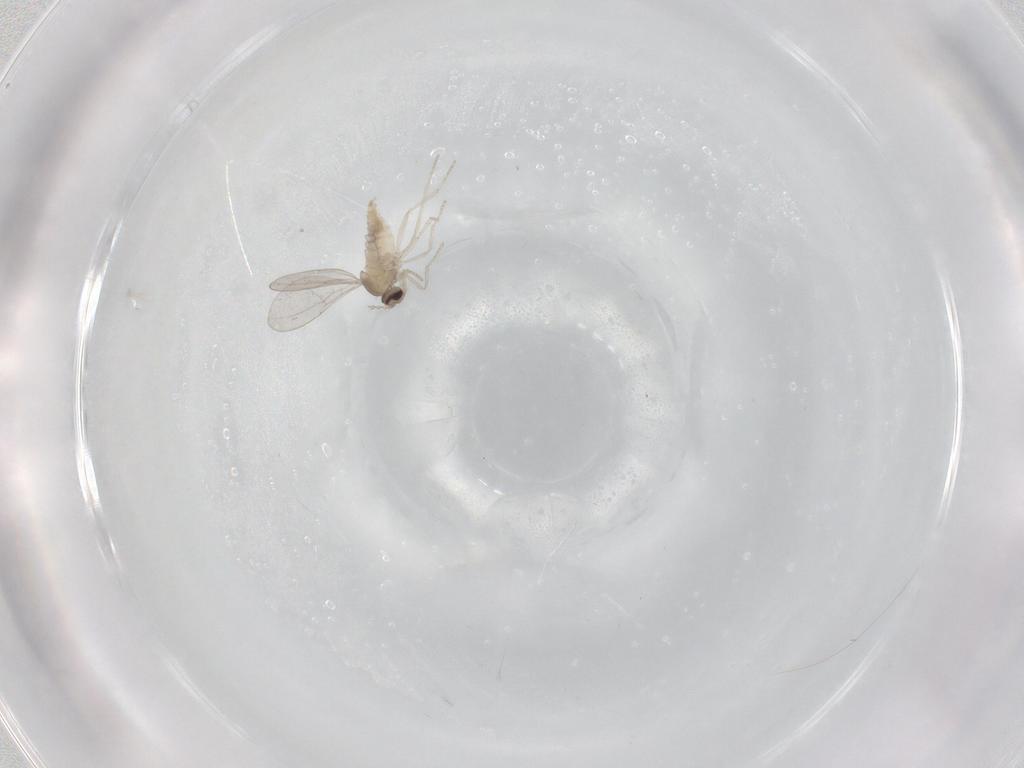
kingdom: Animalia
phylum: Arthropoda
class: Insecta
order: Diptera
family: Cecidomyiidae
